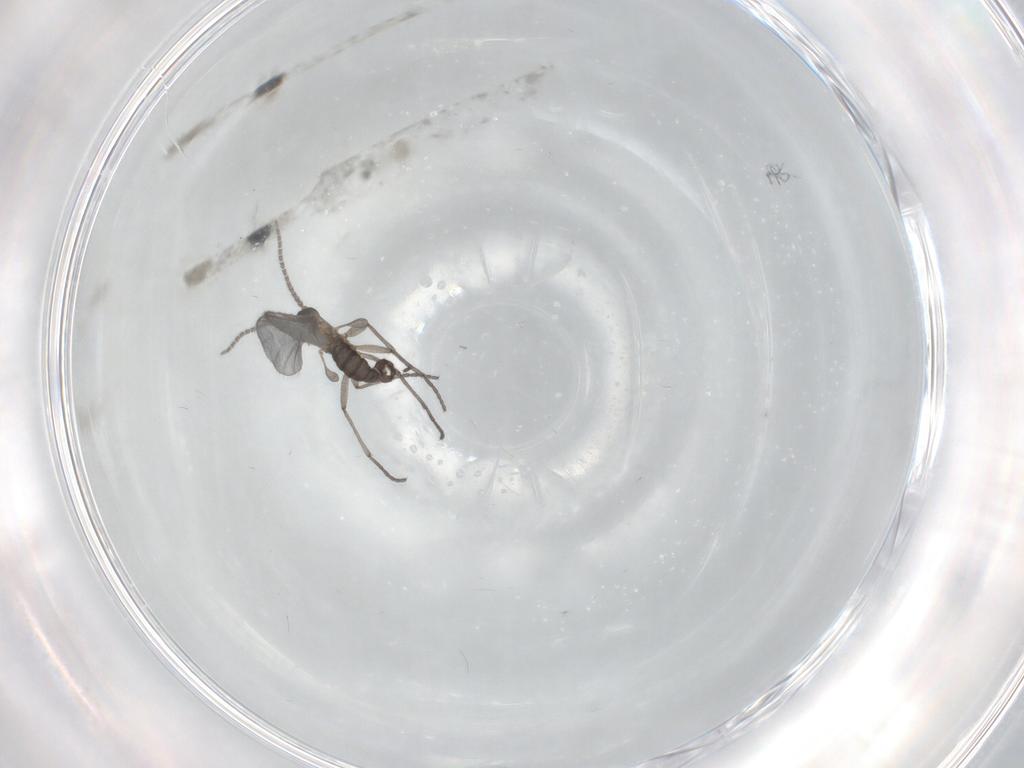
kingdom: Animalia
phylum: Arthropoda
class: Insecta
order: Diptera
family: Sciaridae
